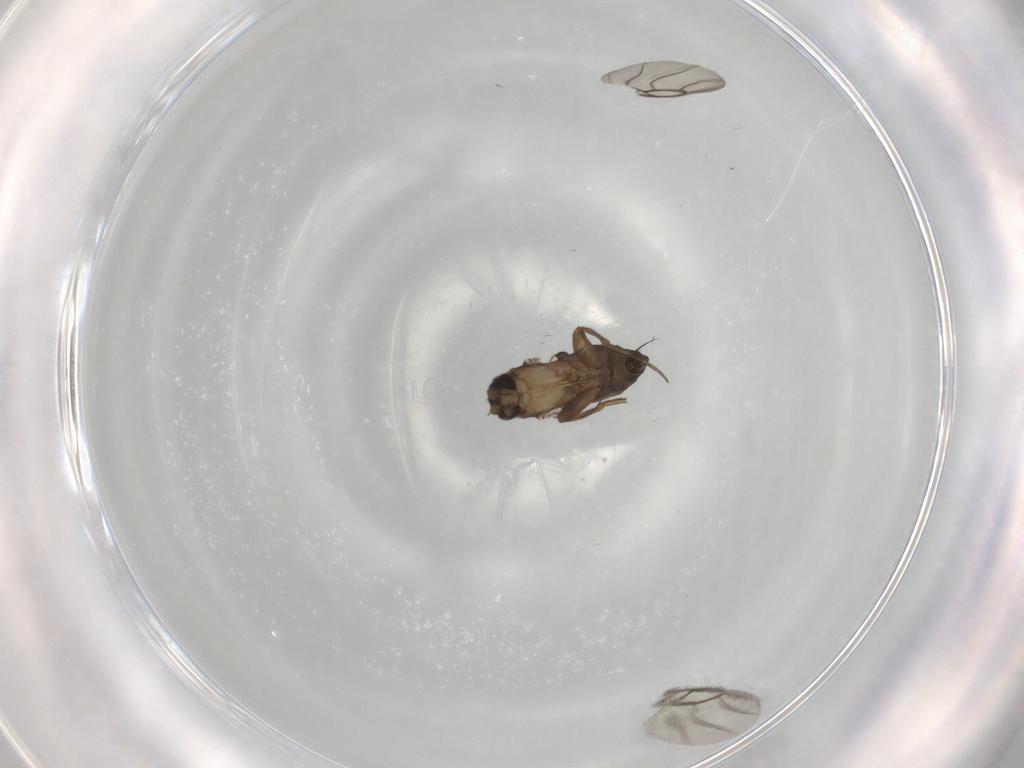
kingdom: Animalia
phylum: Arthropoda
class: Insecta
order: Diptera
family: Phoridae
